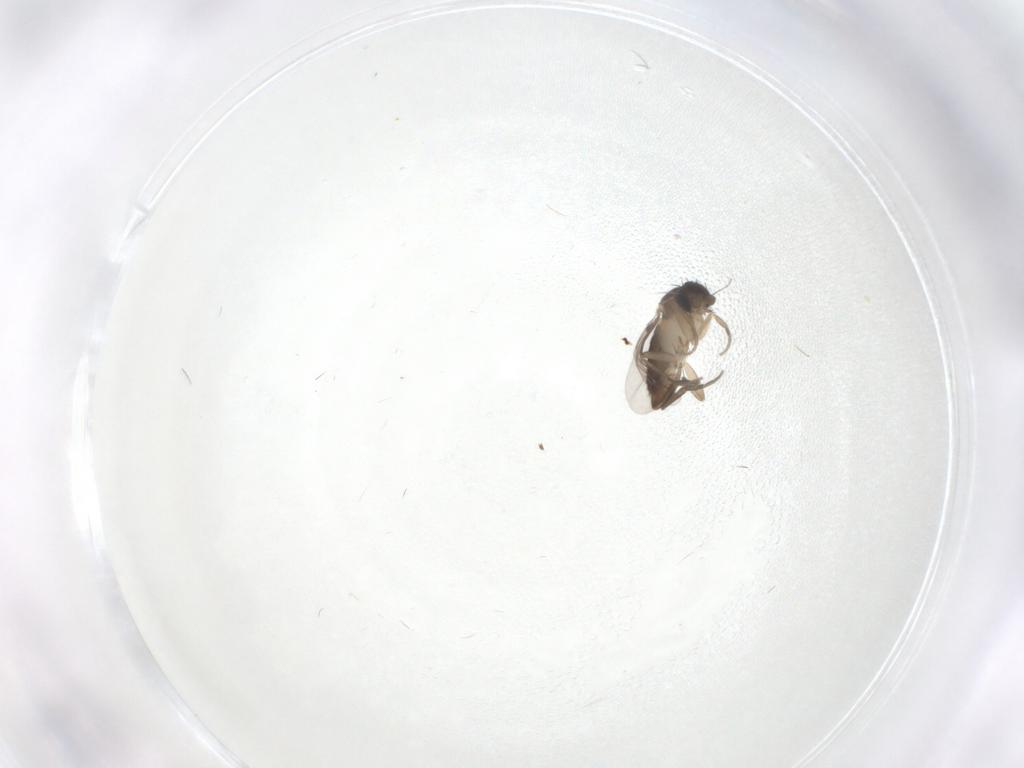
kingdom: Animalia
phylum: Arthropoda
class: Insecta
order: Diptera
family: Phoridae
